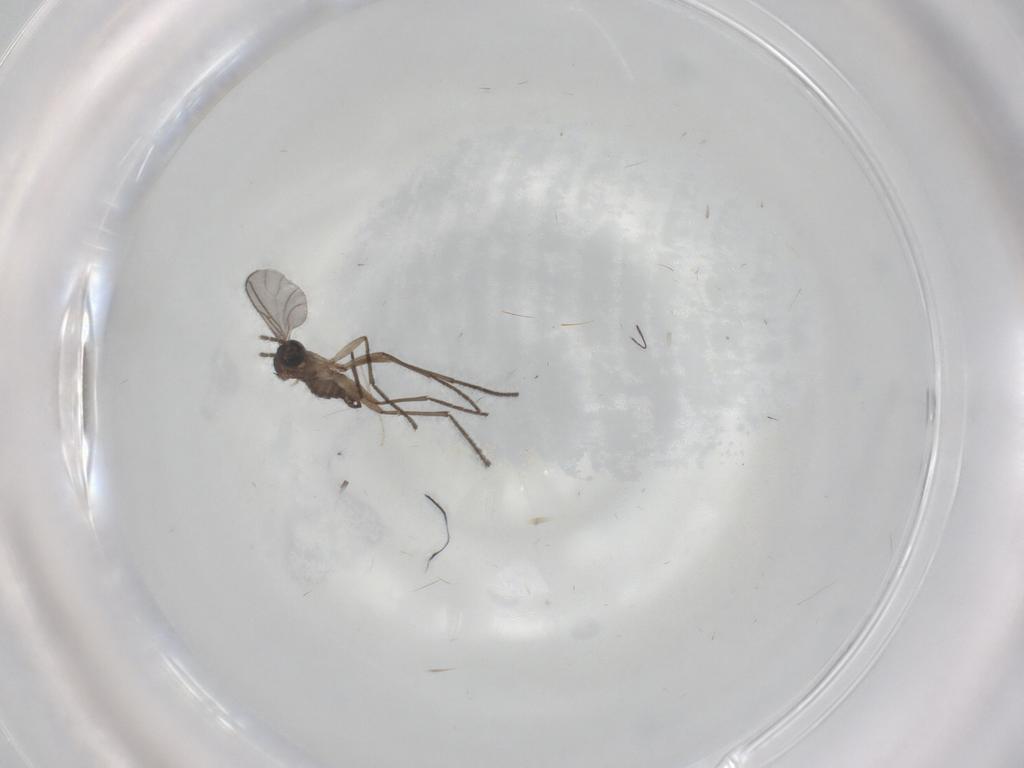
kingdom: Animalia
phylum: Arthropoda
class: Insecta
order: Diptera
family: Sciaridae
